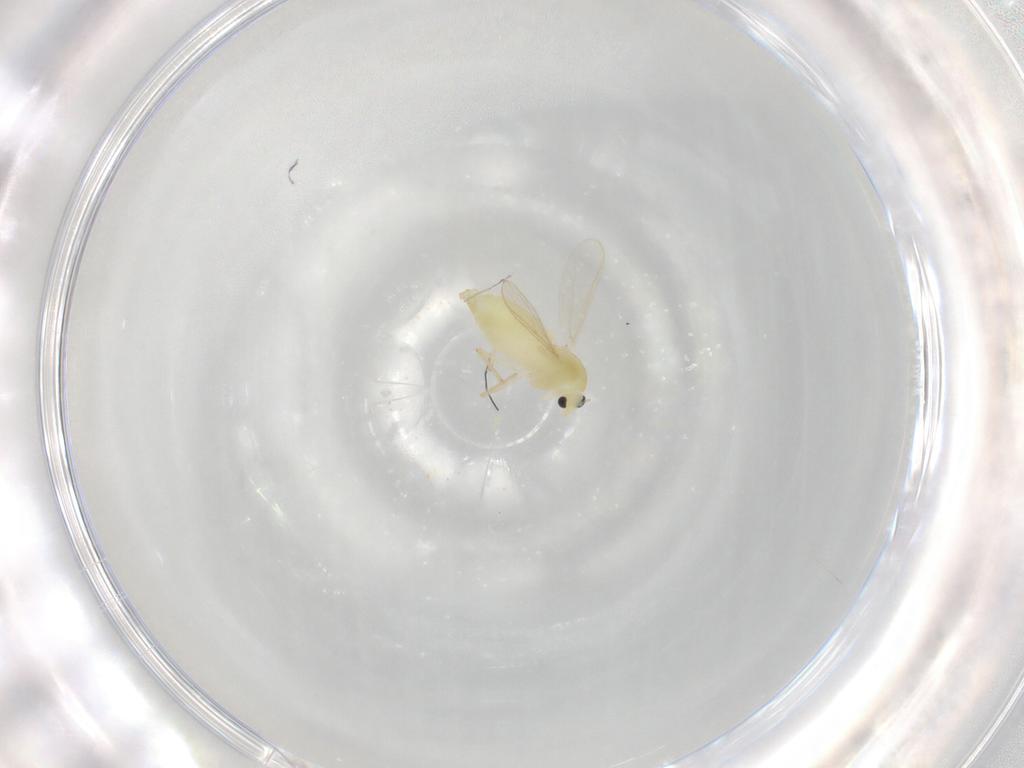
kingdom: Animalia
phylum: Arthropoda
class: Insecta
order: Diptera
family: Chironomidae
